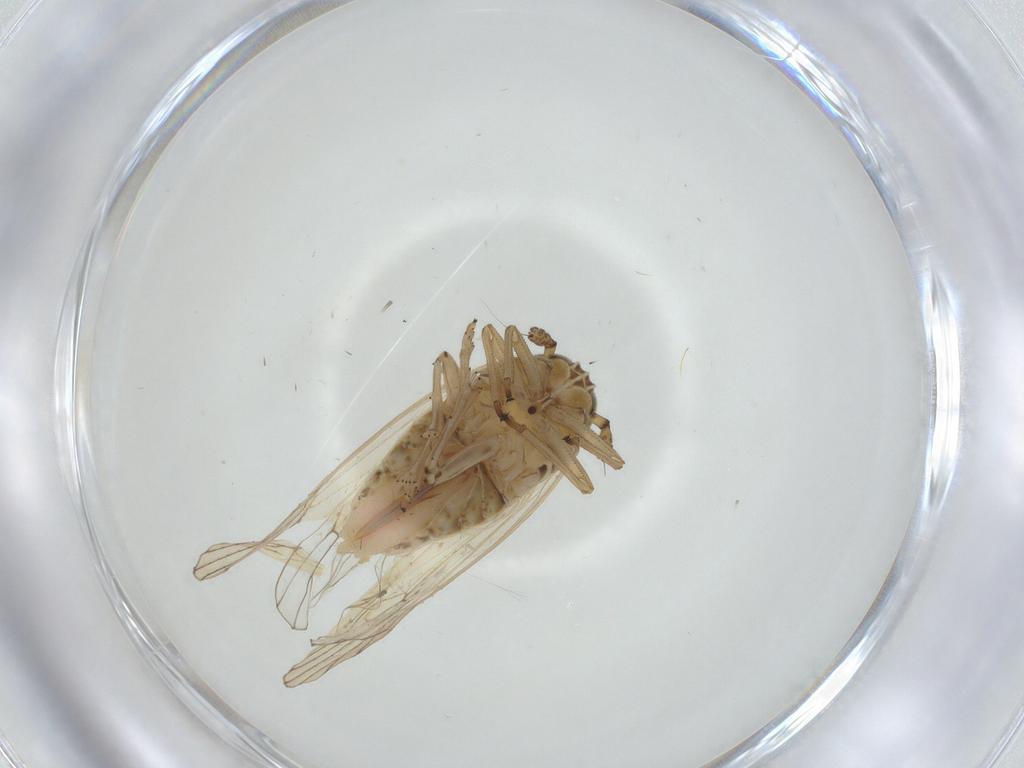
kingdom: Animalia
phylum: Arthropoda
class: Insecta
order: Hemiptera
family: Delphacidae
